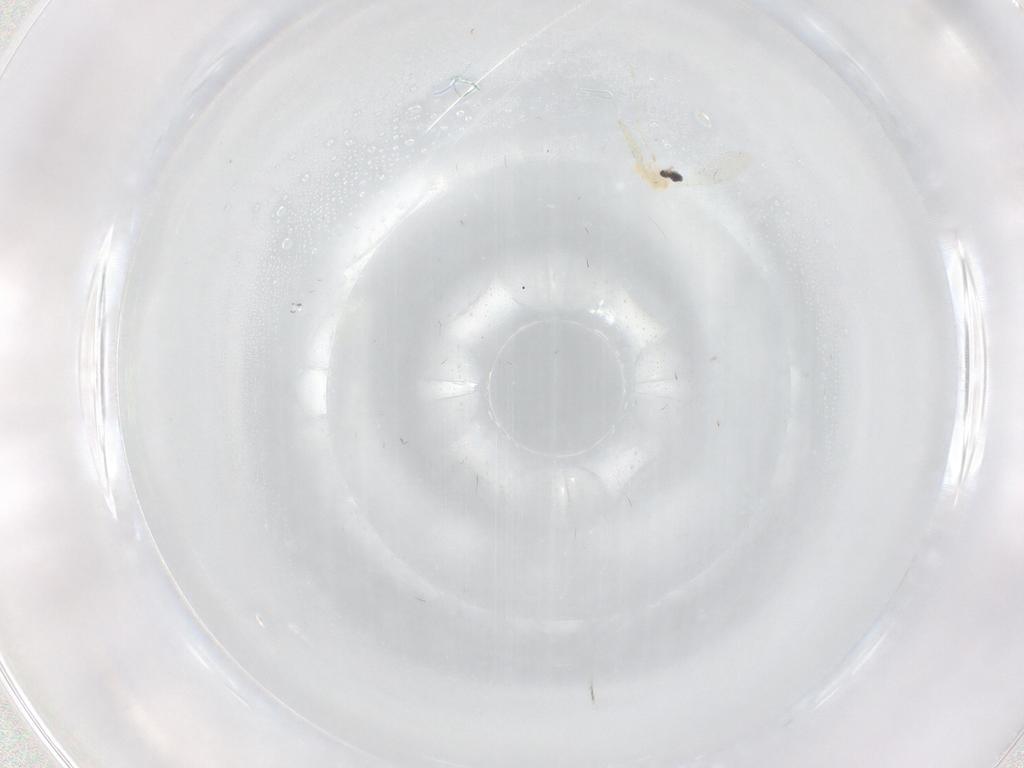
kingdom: Animalia
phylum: Arthropoda
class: Insecta
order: Diptera
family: Cecidomyiidae
